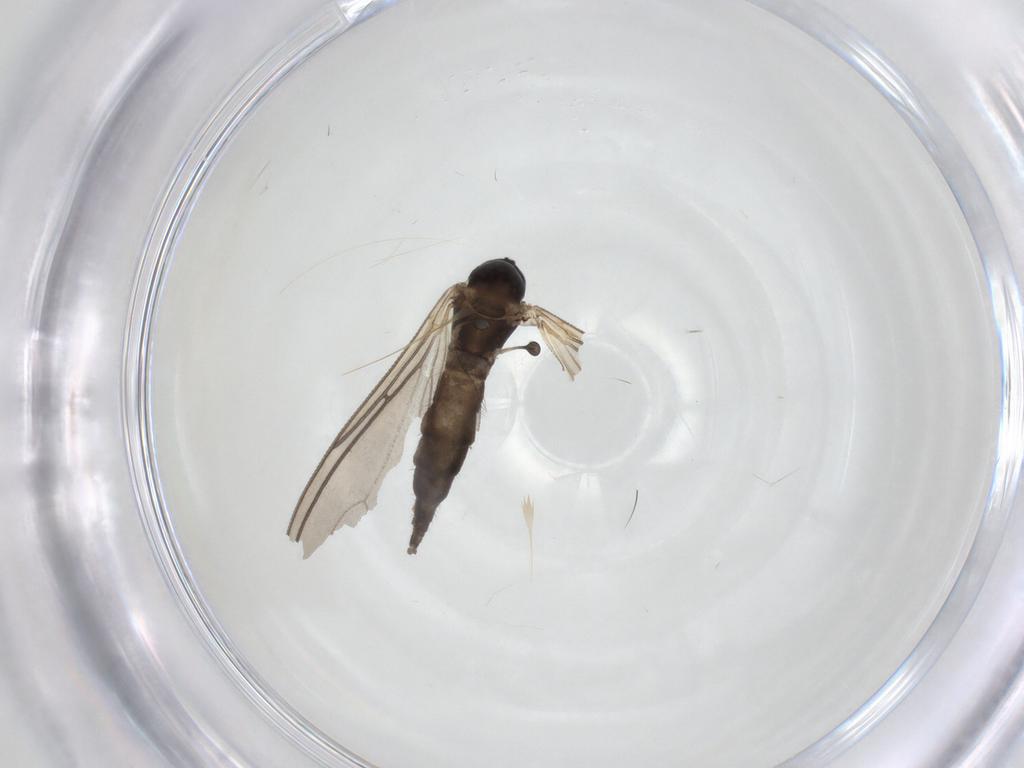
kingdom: Animalia
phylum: Arthropoda
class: Insecta
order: Diptera
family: Sciaridae
